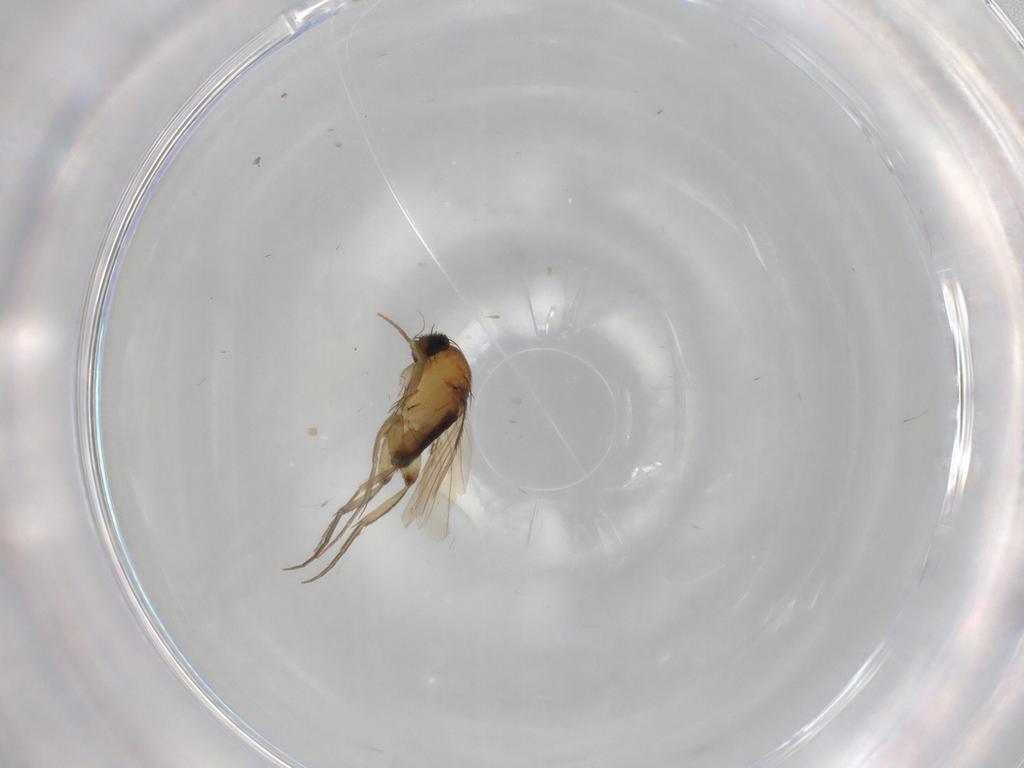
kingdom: Animalia
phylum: Arthropoda
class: Insecta
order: Diptera
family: Phoridae
